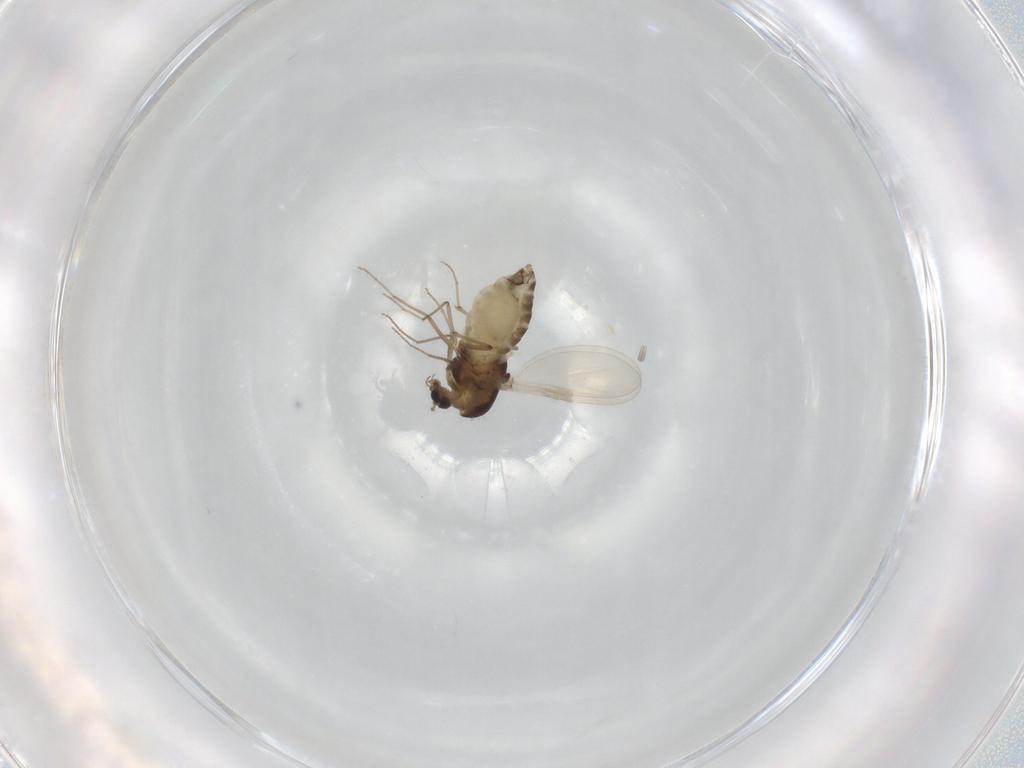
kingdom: Animalia
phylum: Arthropoda
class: Insecta
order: Diptera
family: Chironomidae
